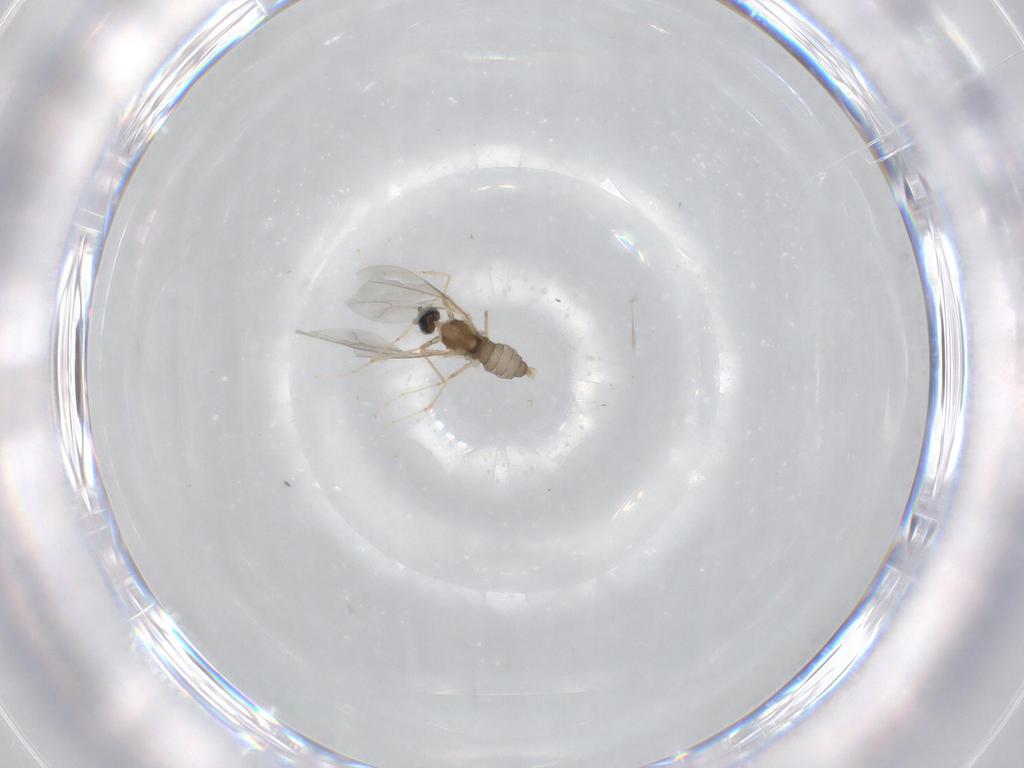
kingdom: Animalia
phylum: Arthropoda
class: Insecta
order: Diptera
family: Cecidomyiidae
